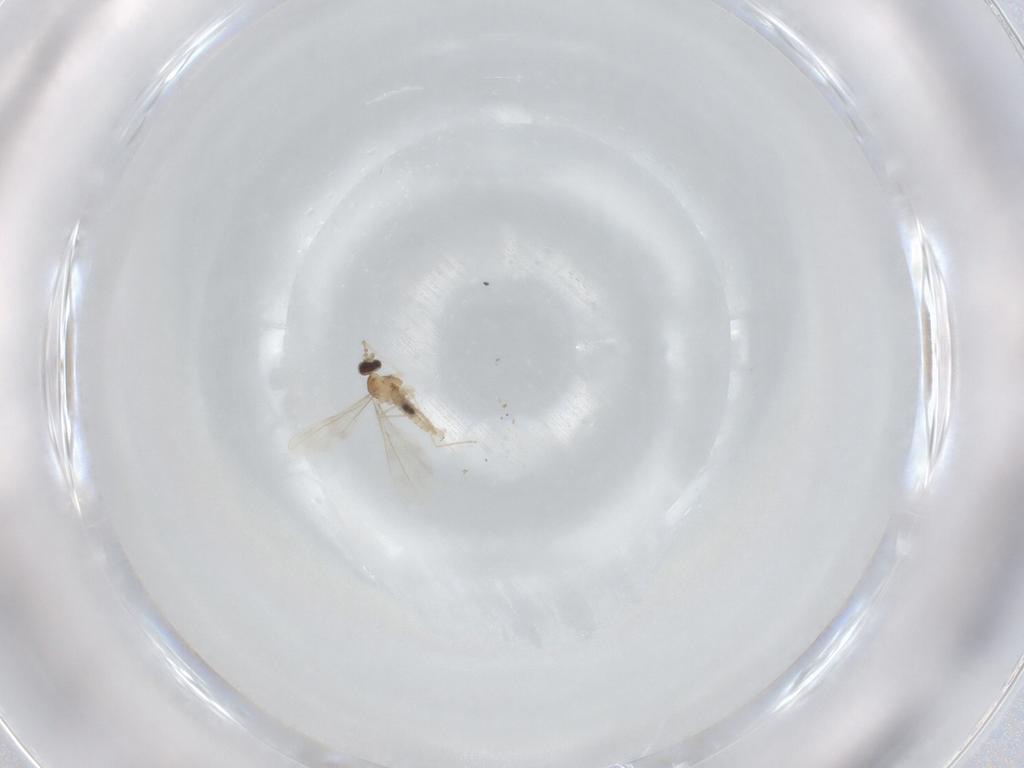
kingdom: Animalia
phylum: Arthropoda
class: Insecta
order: Diptera
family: Cecidomyiidae
